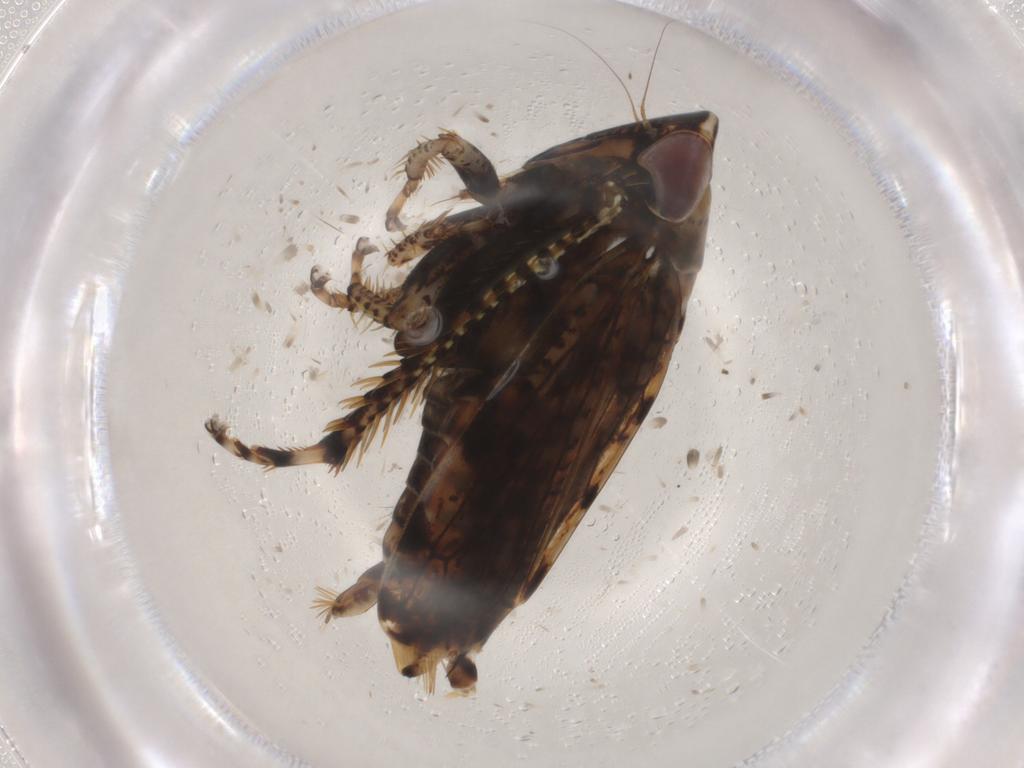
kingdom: Animalia
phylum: Arthropoda
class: Insecta
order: Hemiptera
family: Cicadellidae
